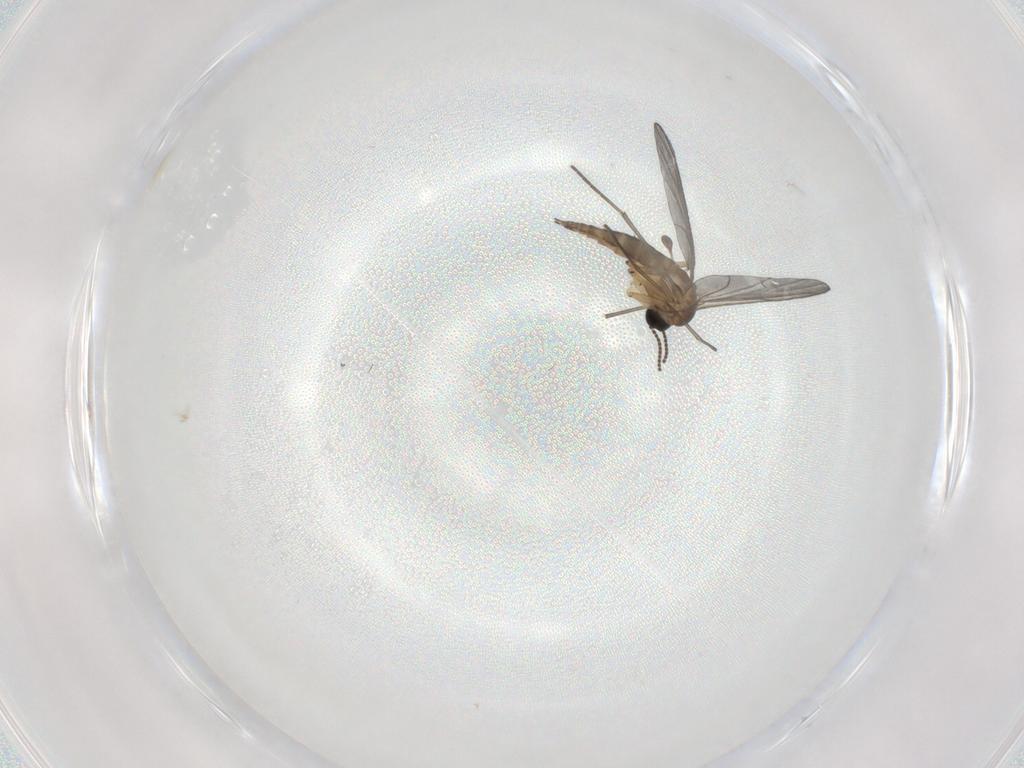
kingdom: Animalia
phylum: Arthropoda
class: Insecta
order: Diptera
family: Sciaridae
